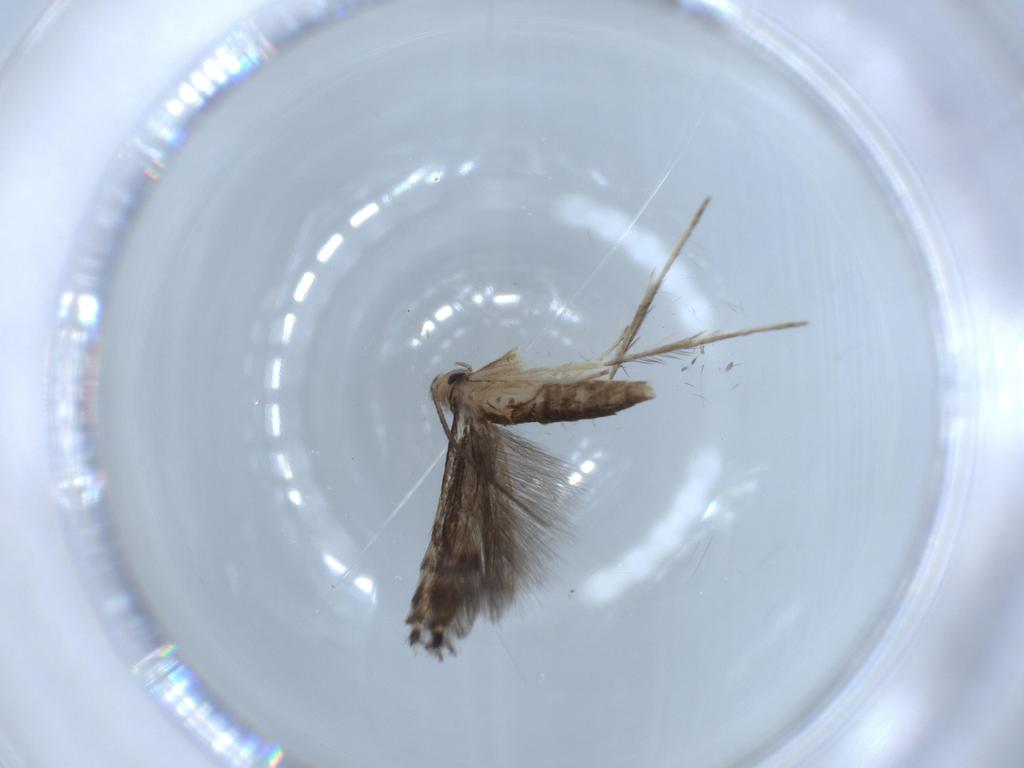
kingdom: Animalia
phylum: Arthropoda
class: Insecta
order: Lepidoptera
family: Gracillariidae
